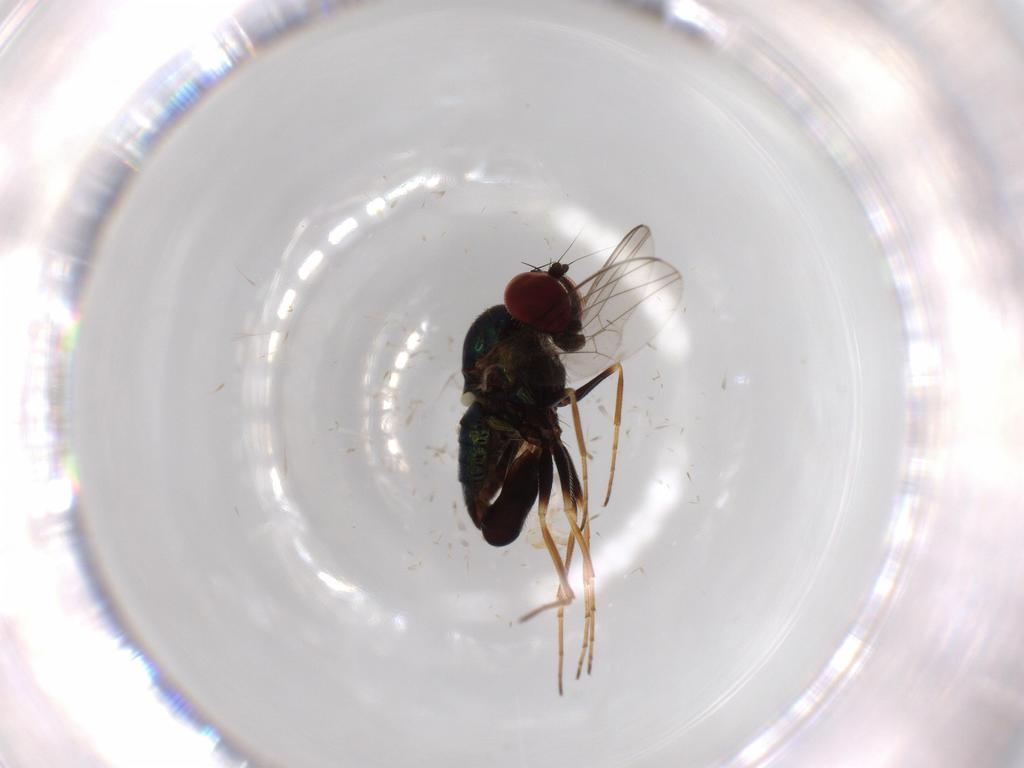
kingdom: Animalia
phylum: Arthropoda
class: Insecta
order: Diptera
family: Dolichopodidae
